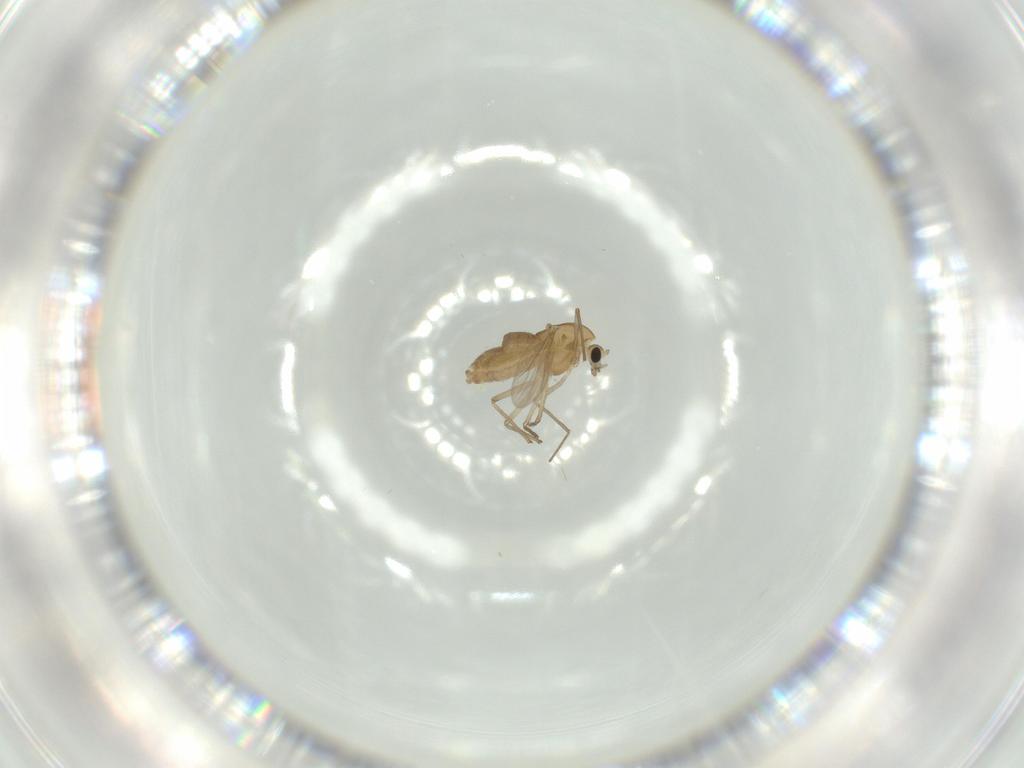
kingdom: Animalia
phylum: Arthropoda
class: Insecta
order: Diptera
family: Chironomidae
